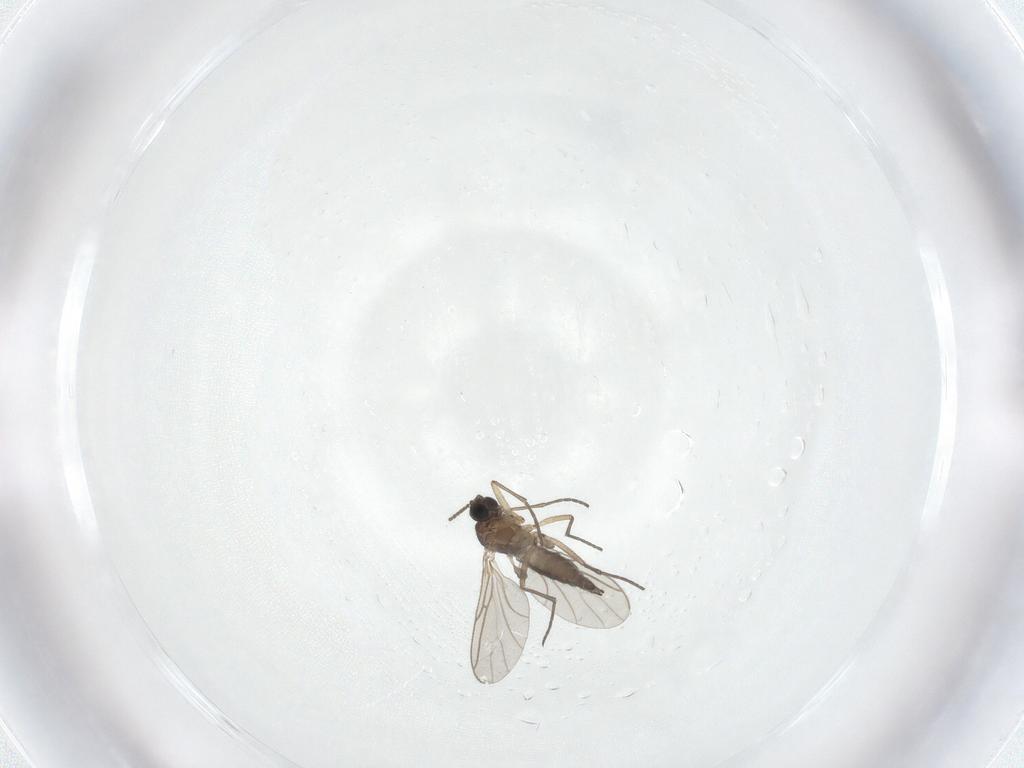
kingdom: Animalia
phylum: Arthropoda
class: Insecta
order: Diptera
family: Sciaridae
